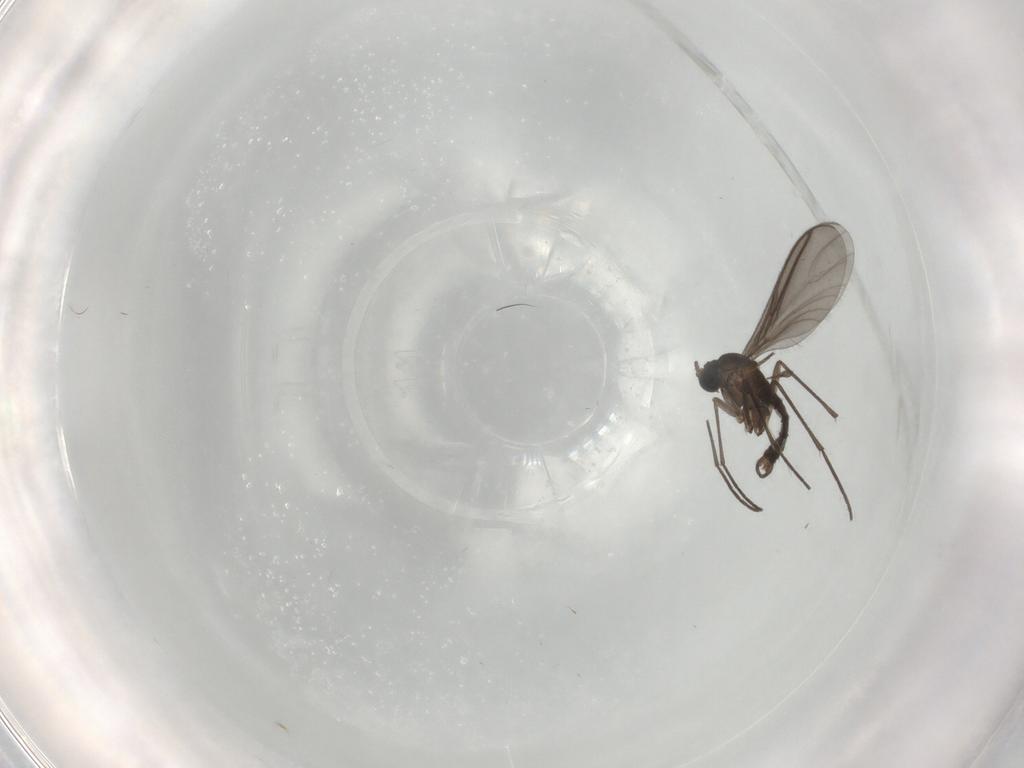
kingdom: Animalia
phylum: Arthropoda
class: Insecta
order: Diptera
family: Sciaridae
